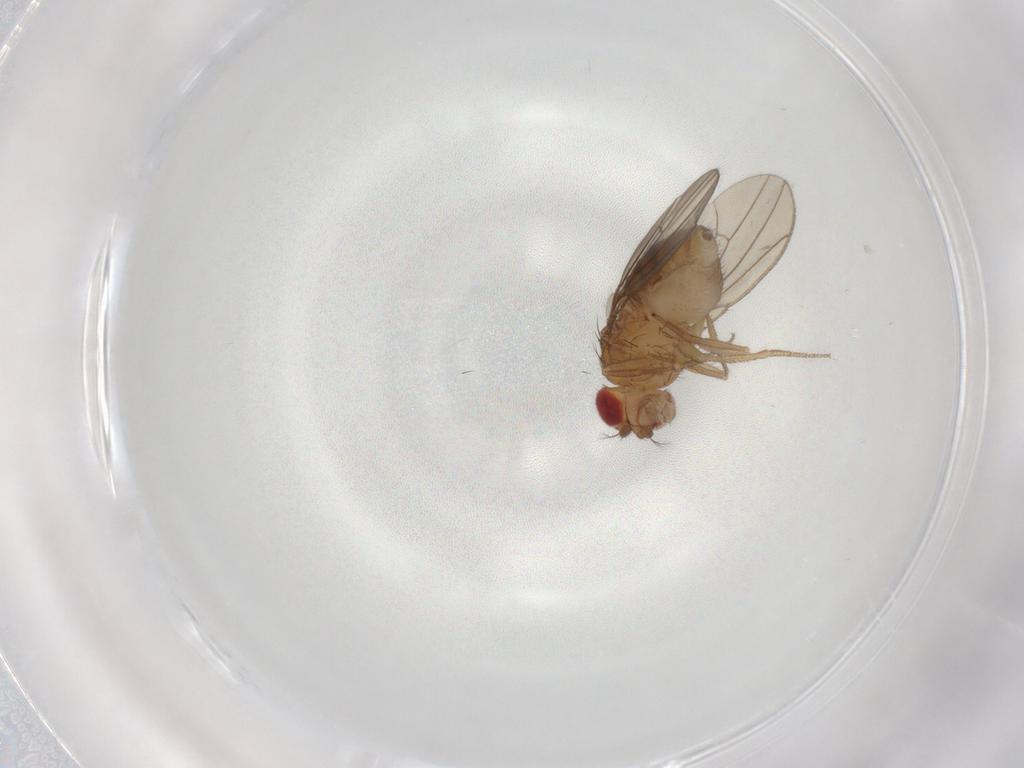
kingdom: Animalia
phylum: Arthropoda
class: Insecta
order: Diptera
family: Drosophilidae
